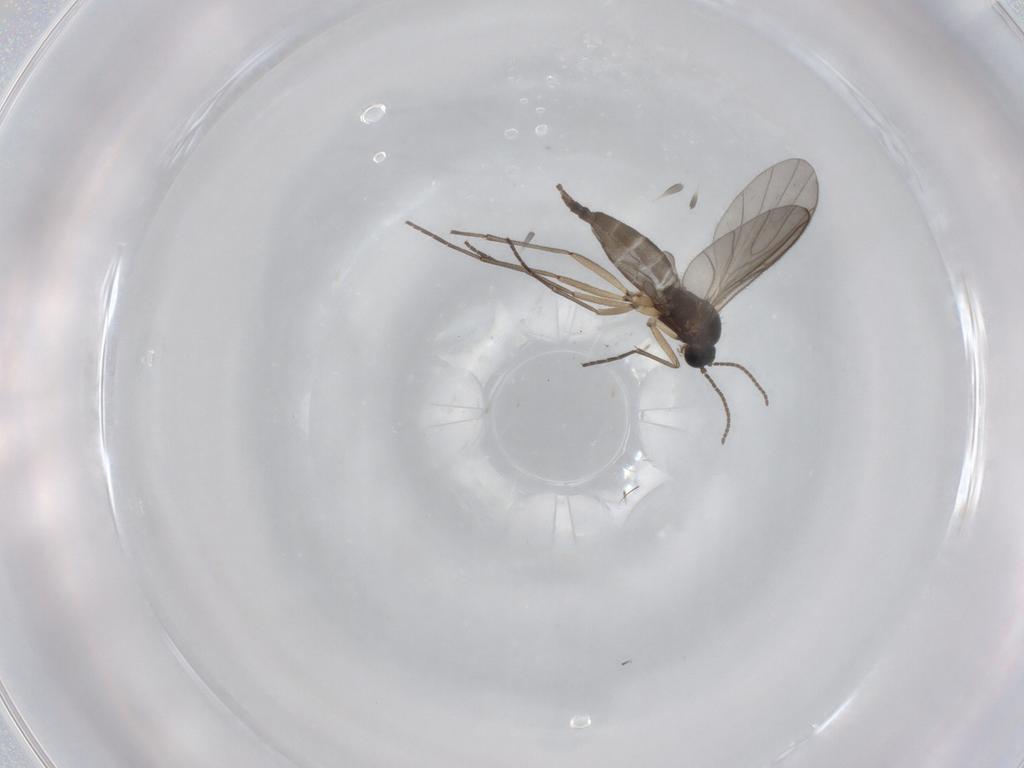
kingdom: Animalia
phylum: Arthropoda
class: Insecta
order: Diptera
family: Sciaridae
